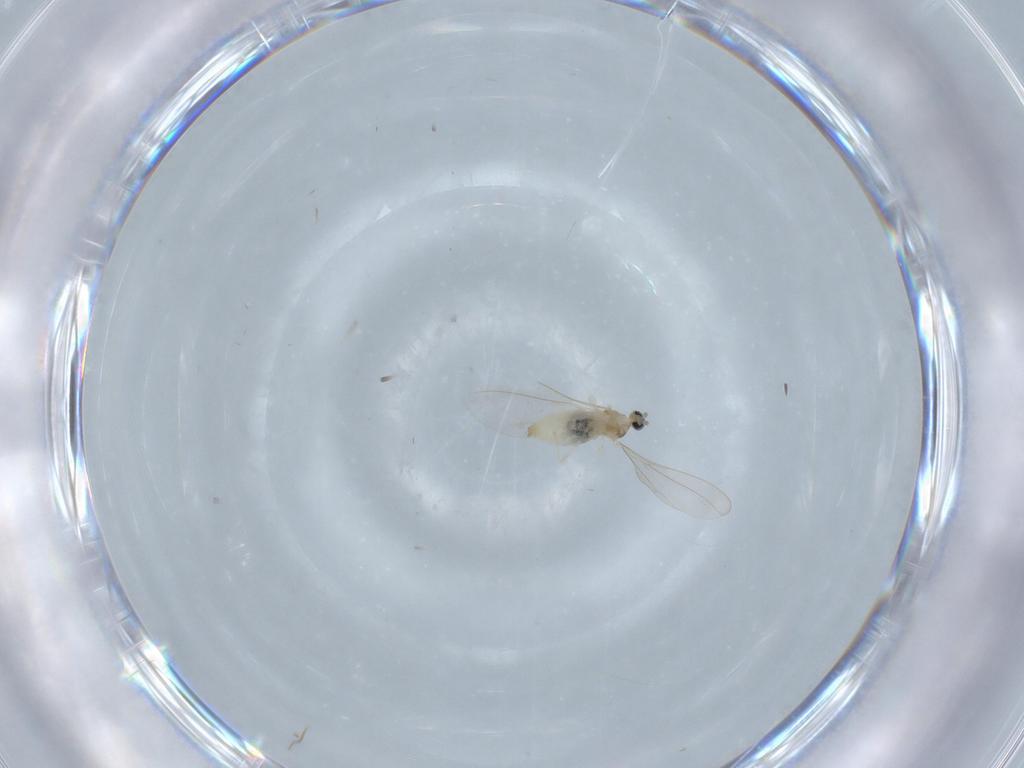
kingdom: Animalia
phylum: Arthropoda
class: Insecta
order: Diptera
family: Cecidomyiidae
